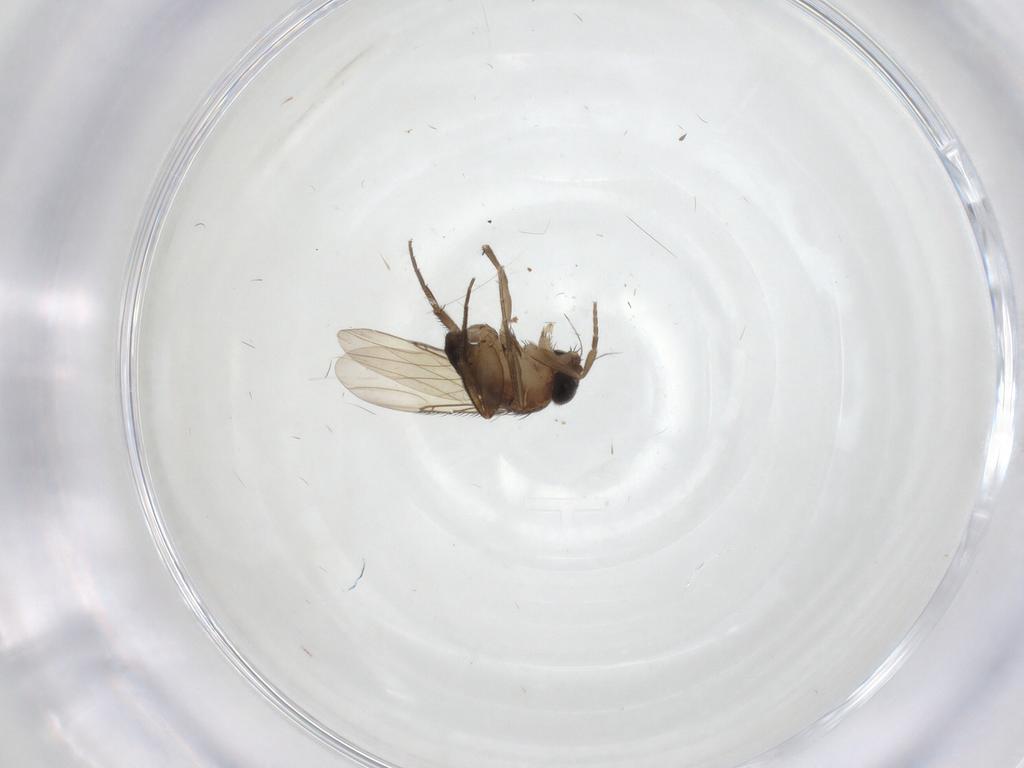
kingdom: Animalia
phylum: Arthropoda
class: Insecta
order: Diptera
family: Phoridae
